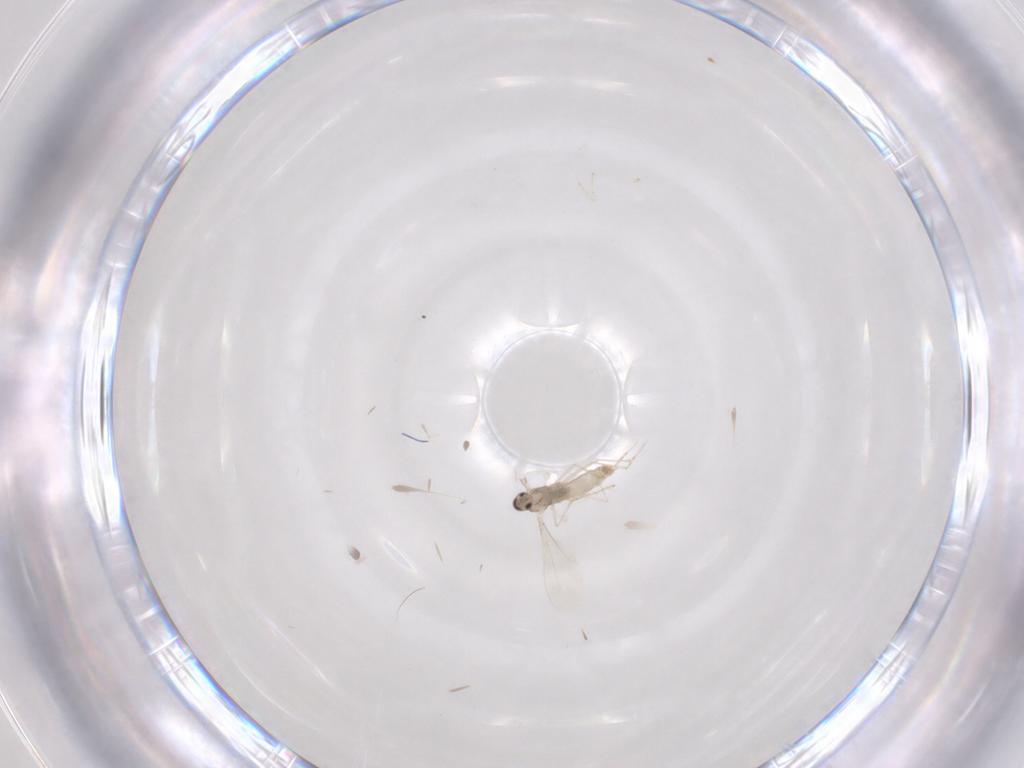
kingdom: Animalia
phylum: Arthropoda
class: Insecta
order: Diptera
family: Cecidomyiidae
